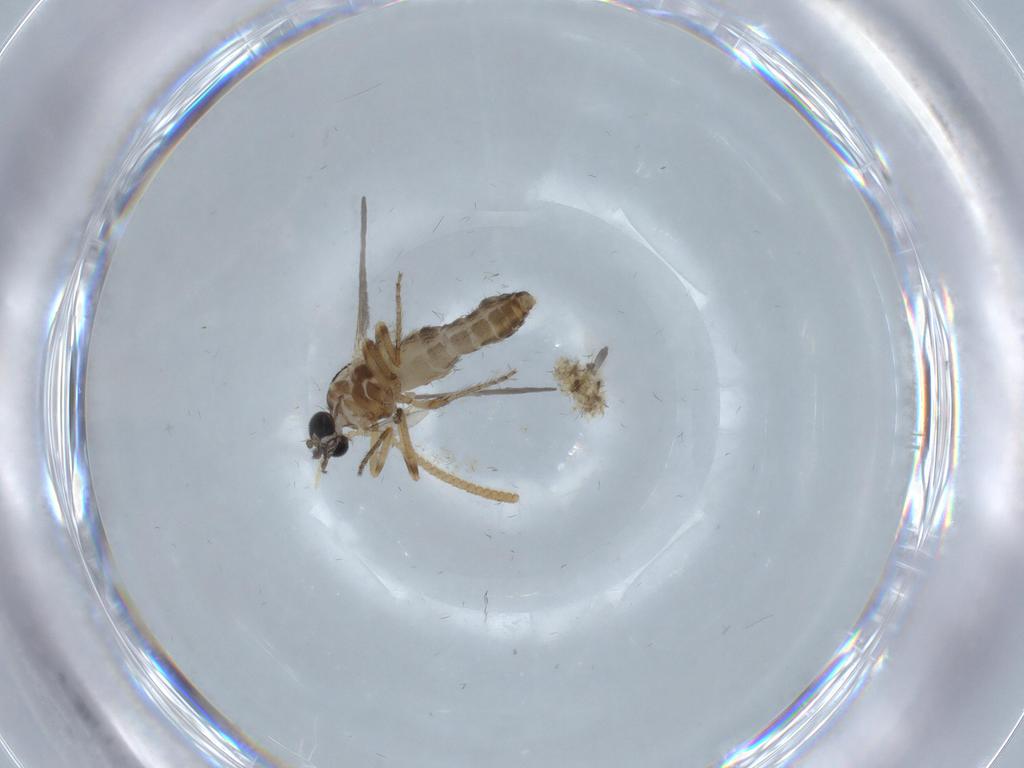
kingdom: Animalia
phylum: Arthropoda
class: Insecta
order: Diptera
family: Ceratopogonidae
